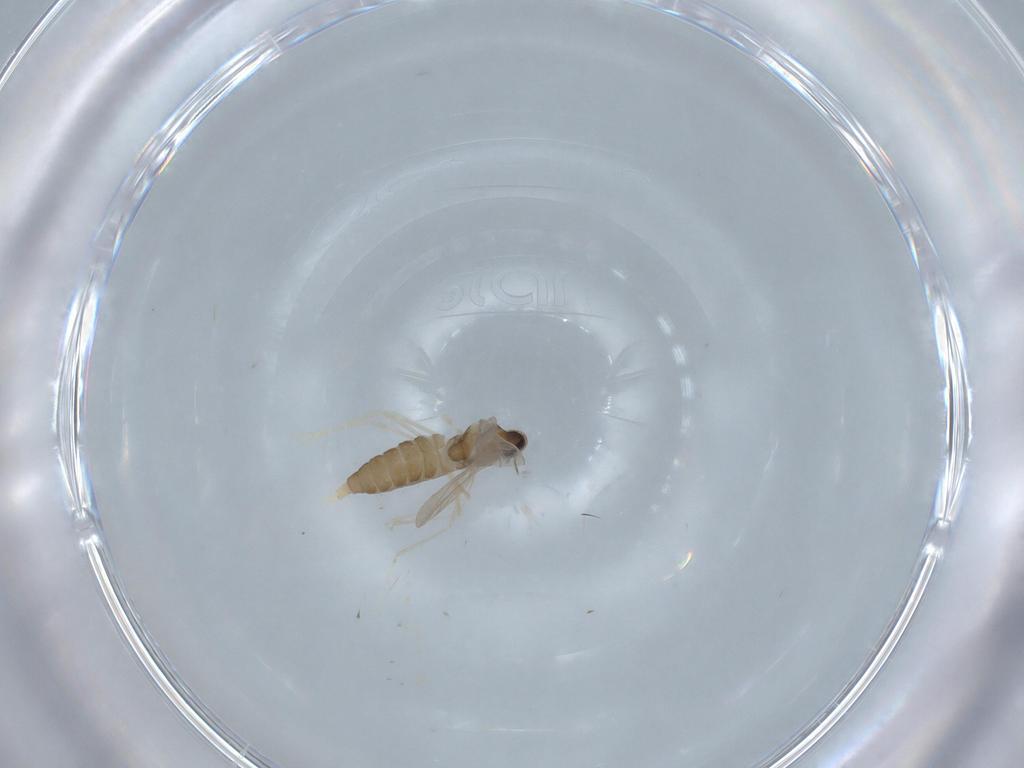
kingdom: Animalia
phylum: Arthropoda
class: Insecta
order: Diptera
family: Cecidomyiidae
